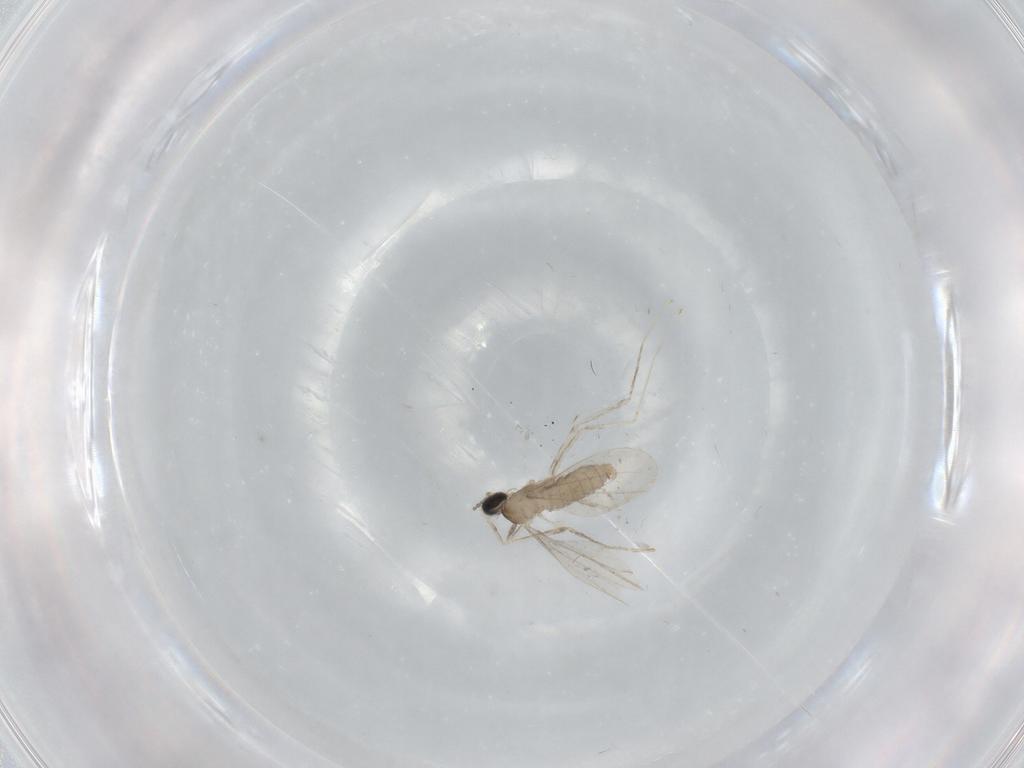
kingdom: Animalia
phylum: Arthropoda
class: Insecta
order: Diptera
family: Cecidomyiidae
